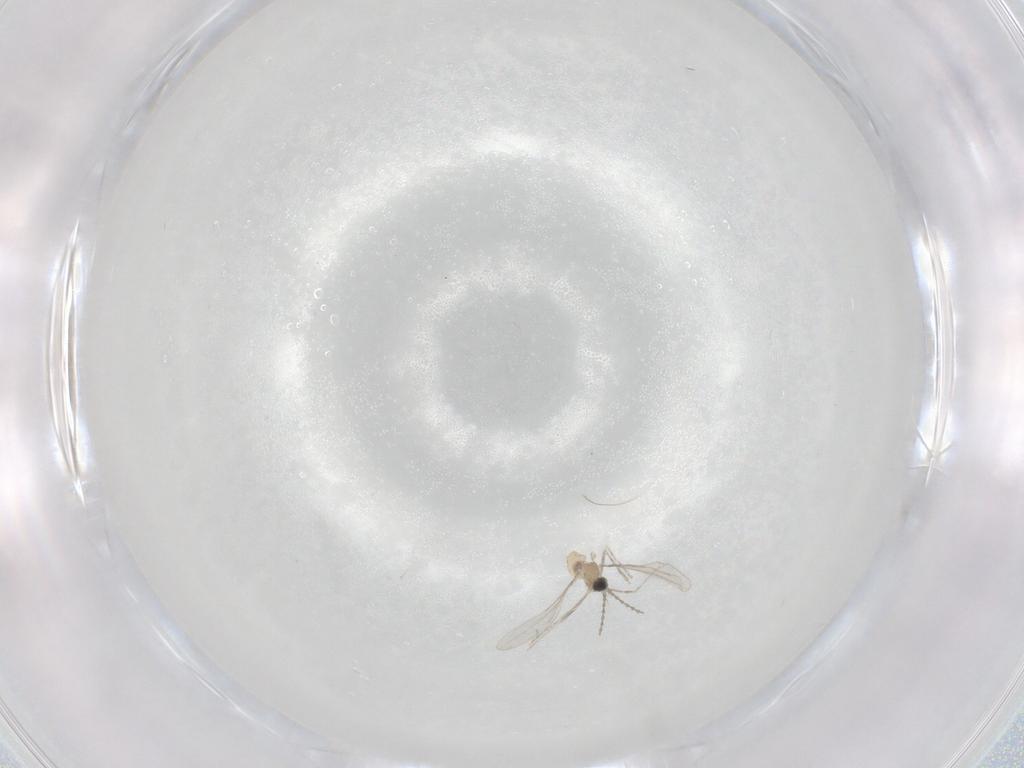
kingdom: Animalia
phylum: Arthropoda
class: Insecta
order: Diptera
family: Cecidomyiidae
